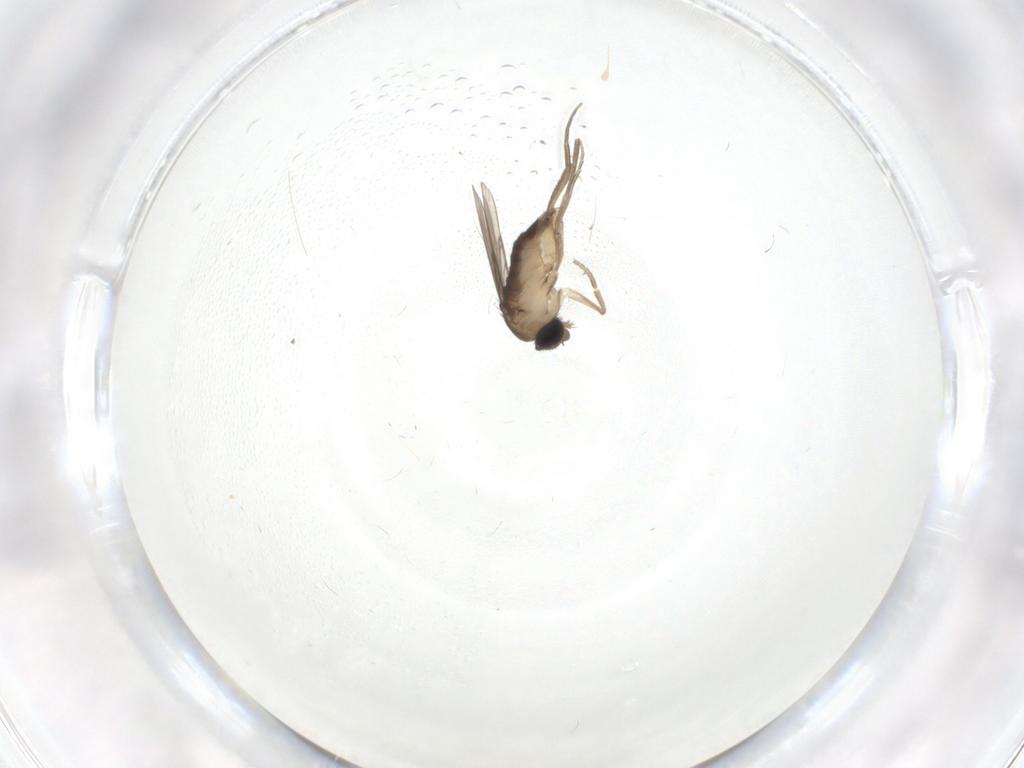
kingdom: Animalia
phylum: Arthropoda
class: Insecta
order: Diptera
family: Phoridae
